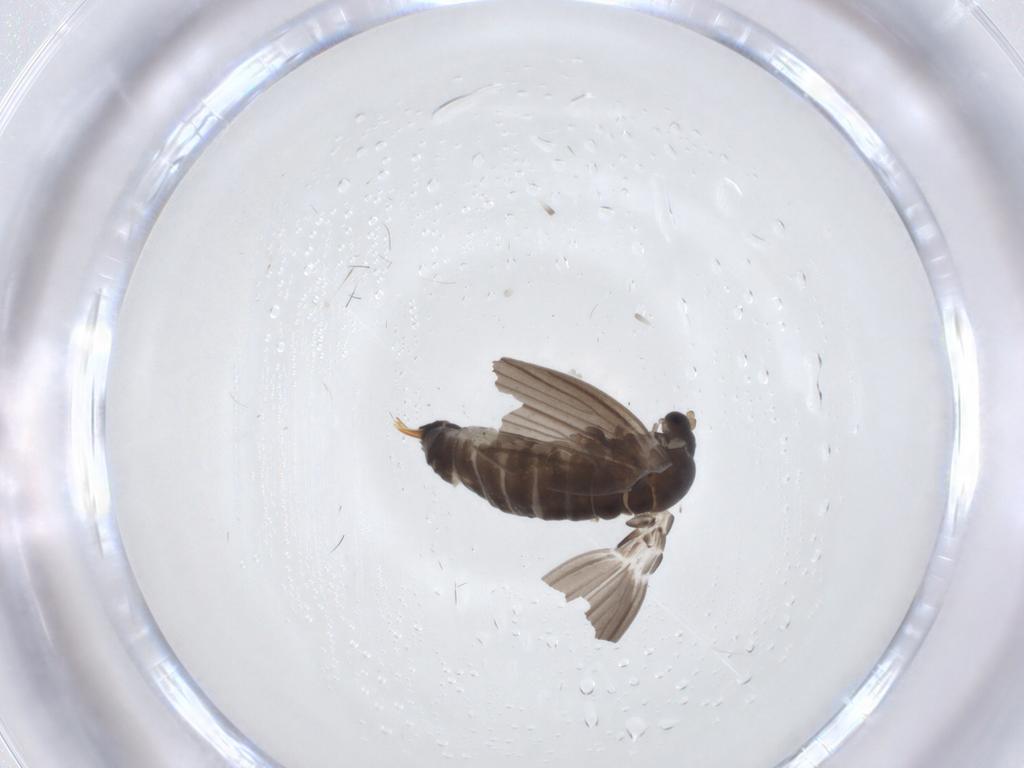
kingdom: Animalia
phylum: Arthropoda
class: Insecta
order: Diptera
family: Psychodidae
